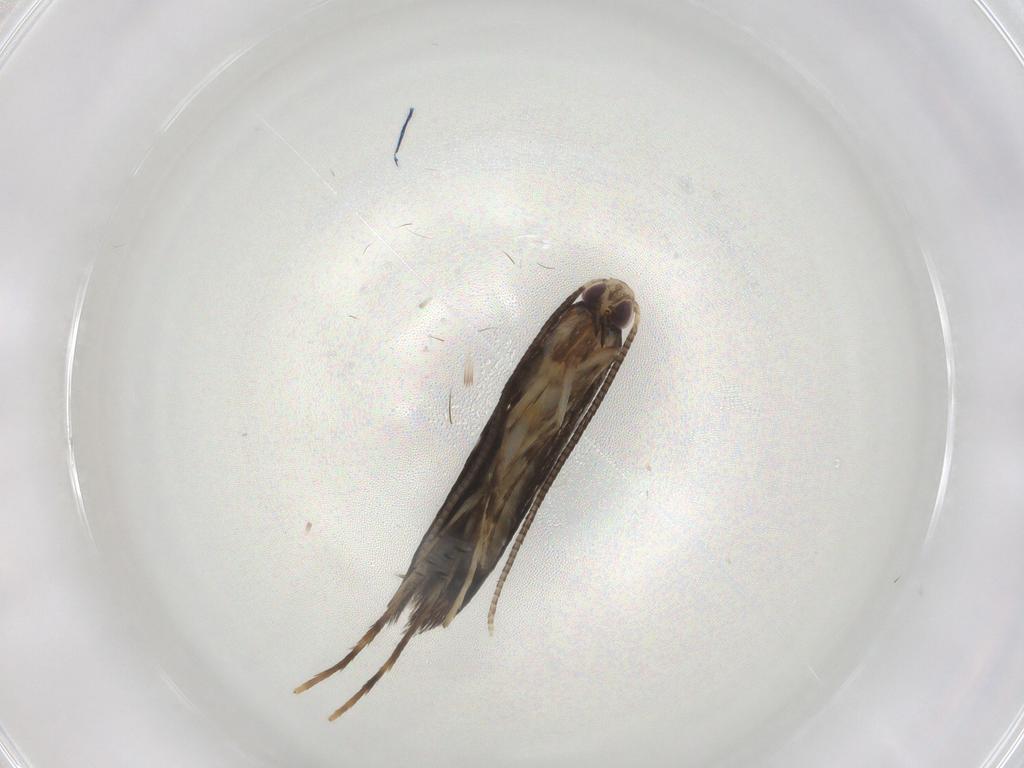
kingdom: Animalia
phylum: Arthropoda
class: Insecta
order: Lepidoptera
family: Gracillariidae
